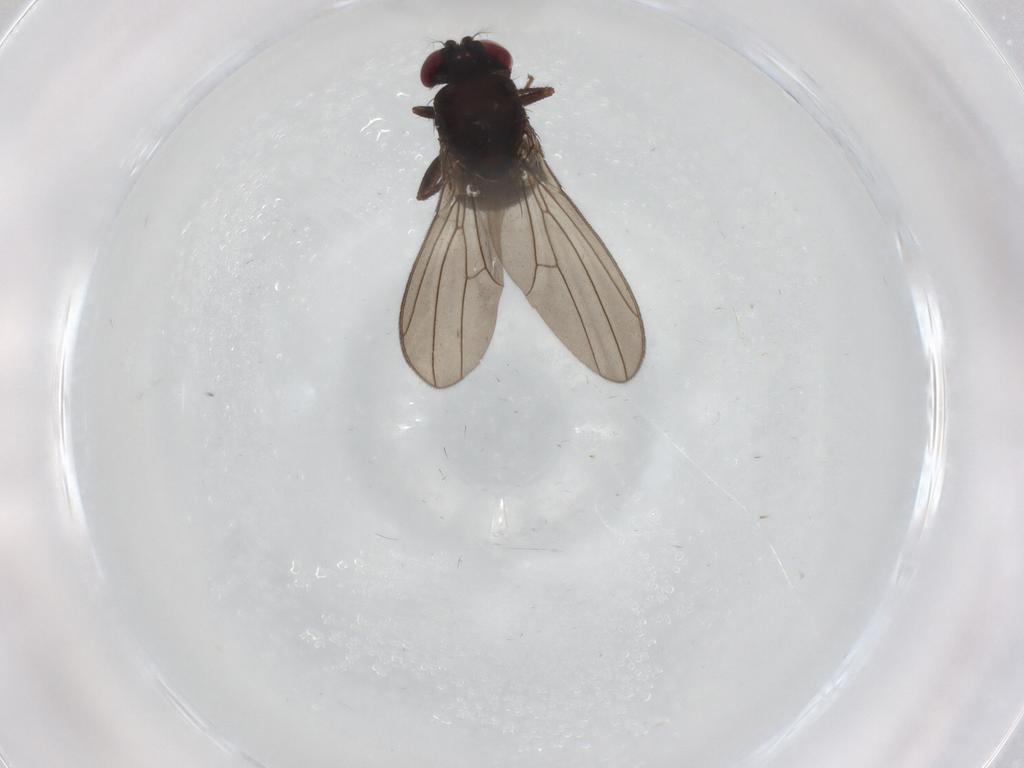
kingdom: Animalia
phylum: Arthropoda
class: Insecta
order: Diptera
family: Drosophilidae
